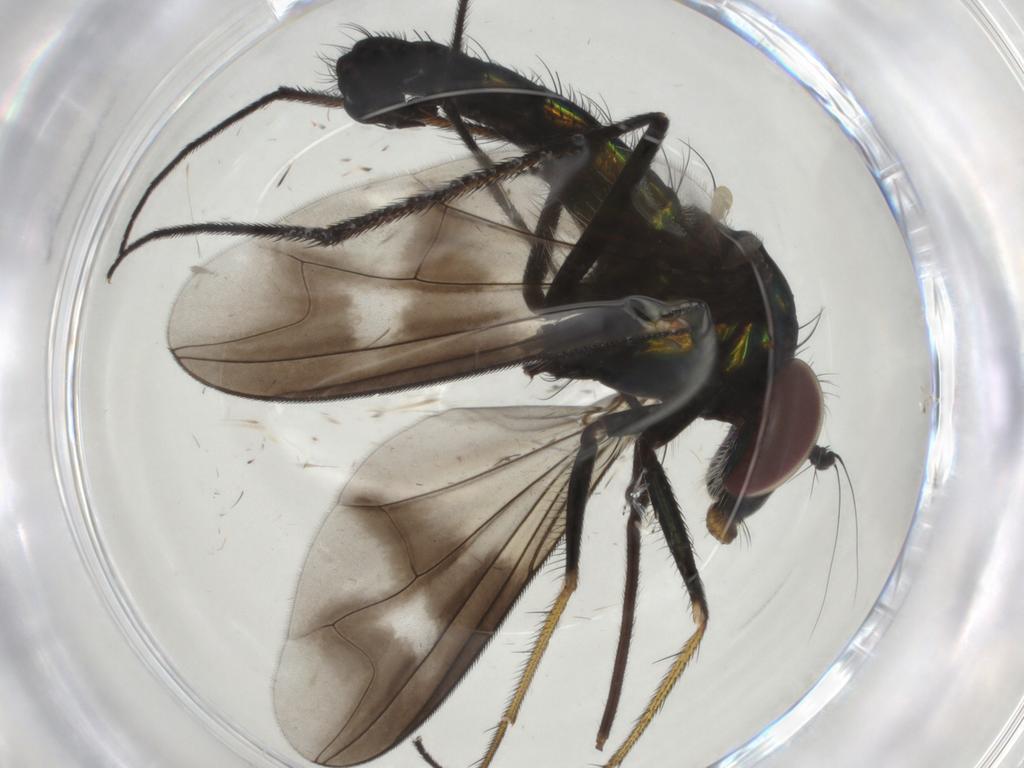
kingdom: Animalia
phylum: Arthropoda
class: Insecta
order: Diptera
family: Dolichopodidae
